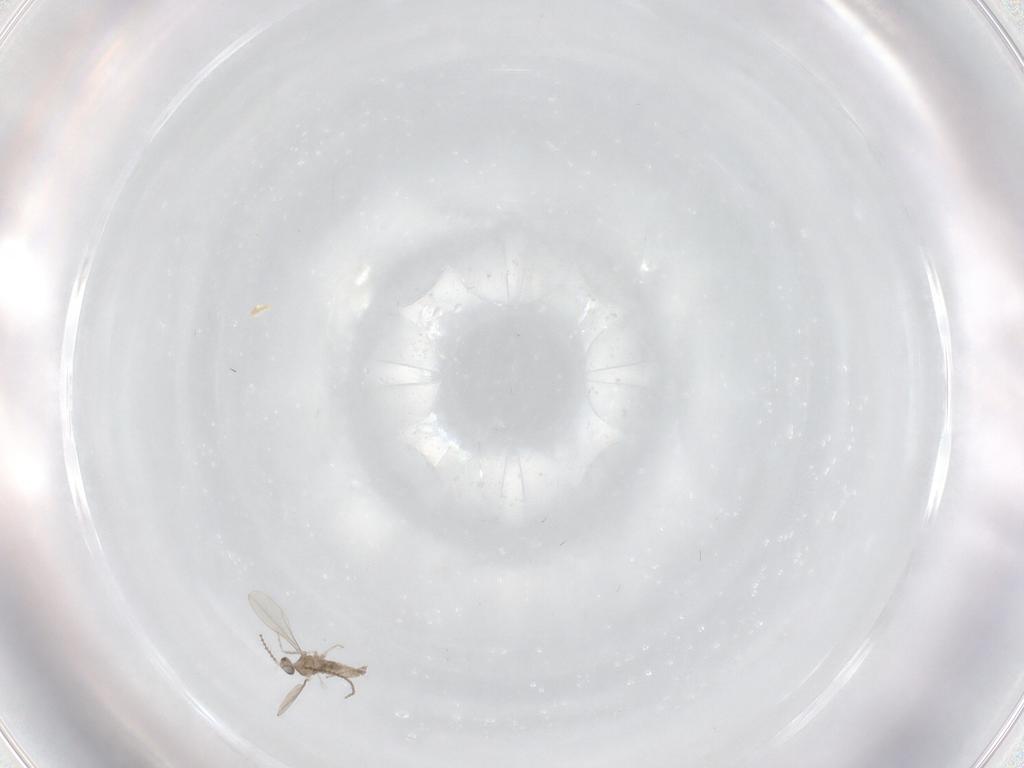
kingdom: Animalia
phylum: Arthropoda
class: Insecta
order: Diptera
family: Cecidomyiidae
